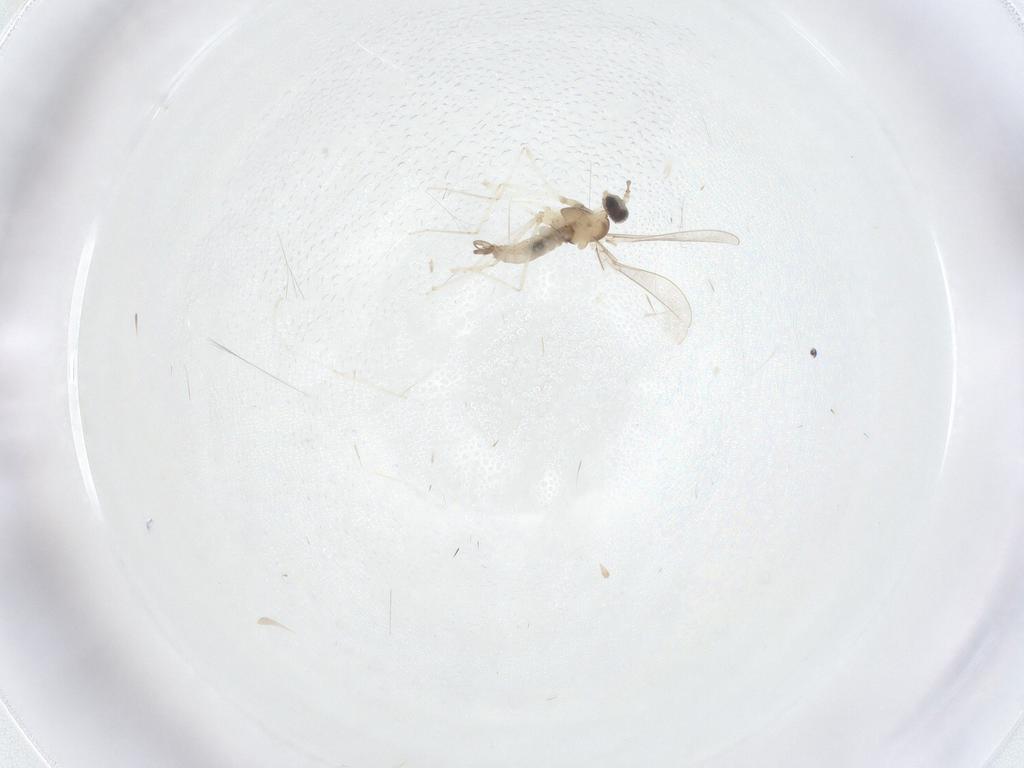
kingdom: Animalia
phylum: Arthropoda
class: Insecta
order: Diptera
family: Cecidomyiidae
